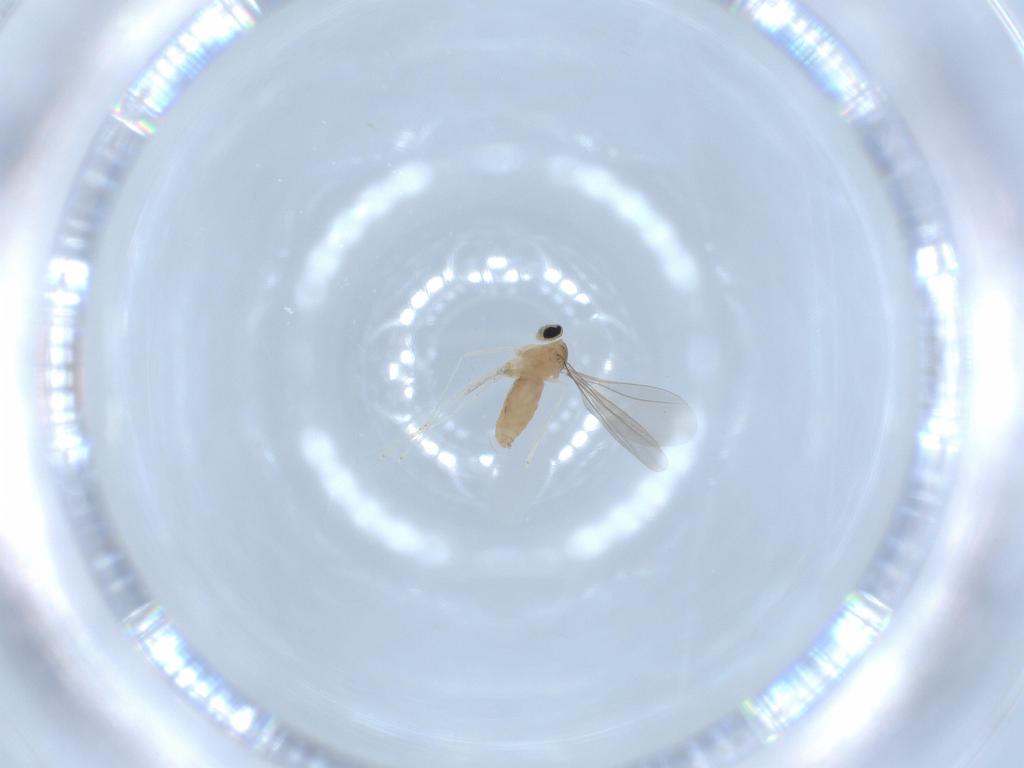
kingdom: Animalia
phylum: Arthropoda
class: Insecta
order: Diptera
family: Cecidomyiidae
